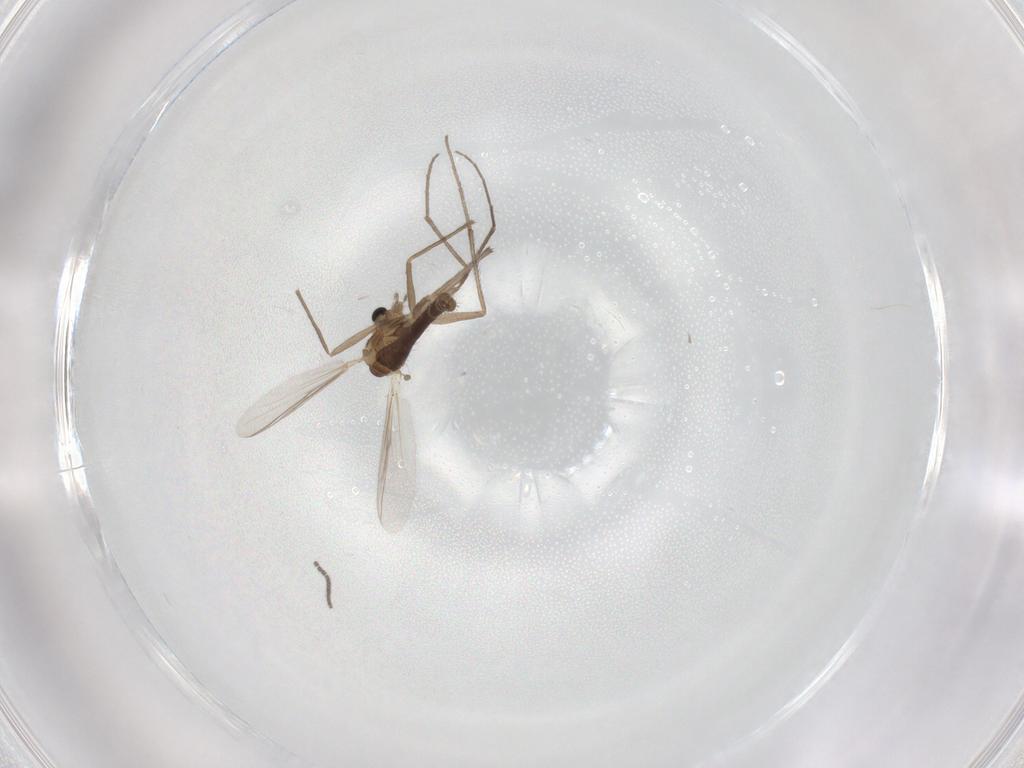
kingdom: Animalia
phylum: Arthropoda
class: Insecta
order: Diptera
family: Chironomidae
